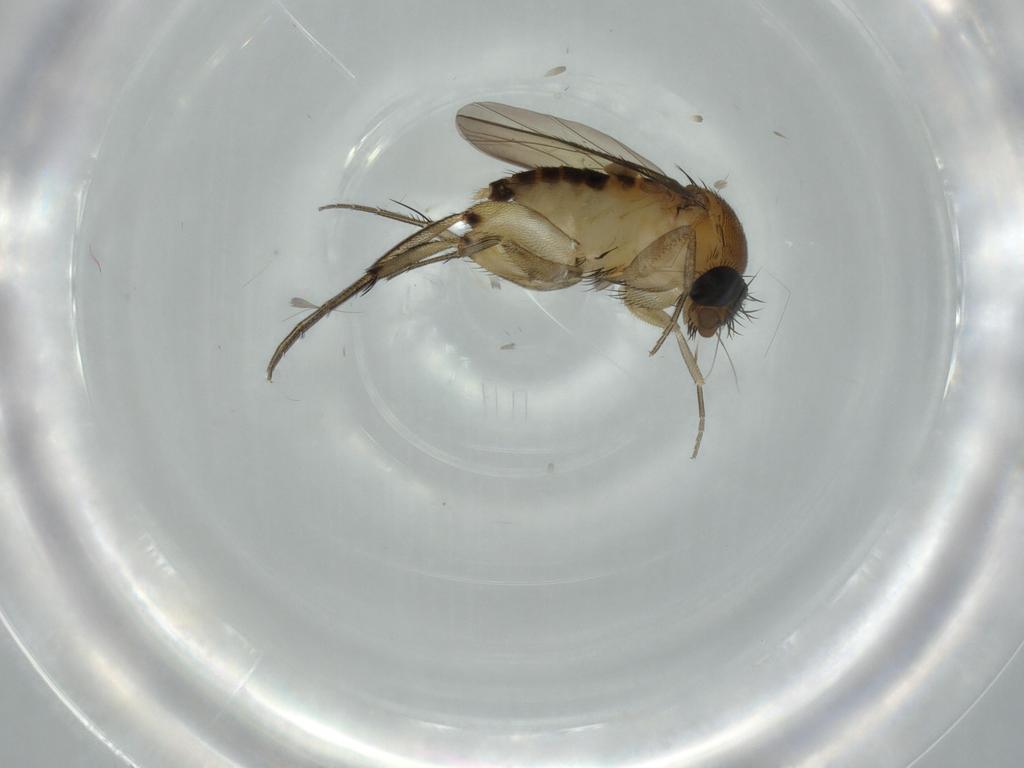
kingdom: Animalia
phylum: Arthropoda
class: Insecta
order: Diptera
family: Phoridae
